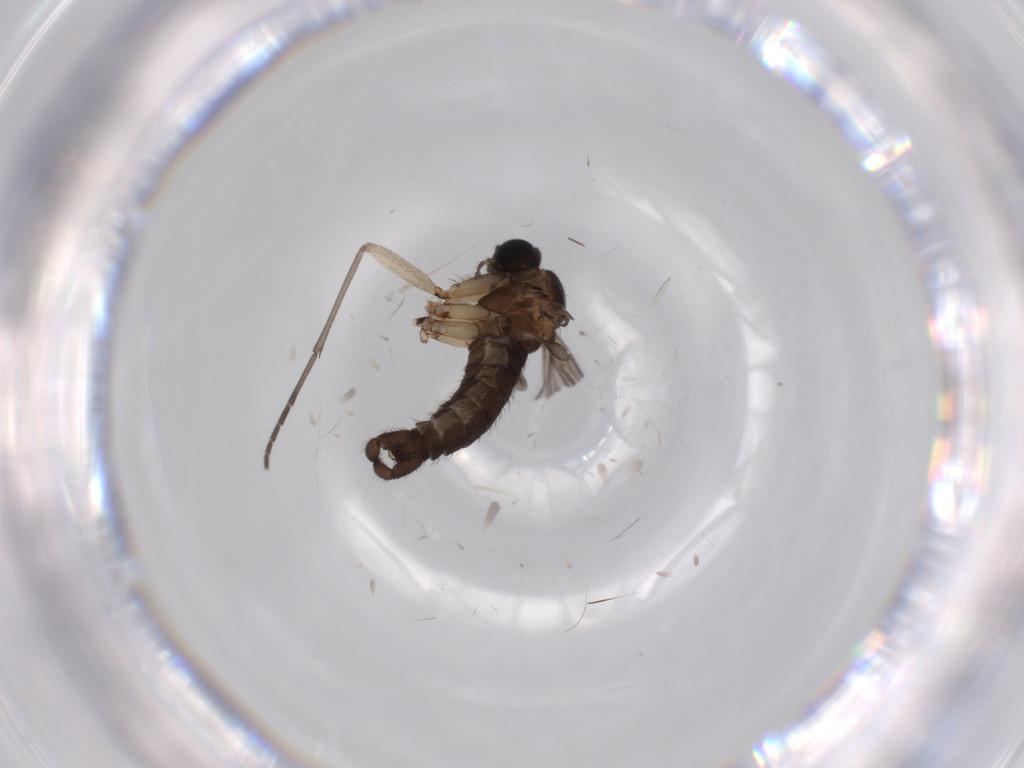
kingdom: Animalia
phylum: Arthropoda
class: Insecta
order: Diptera
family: Sciaridae
